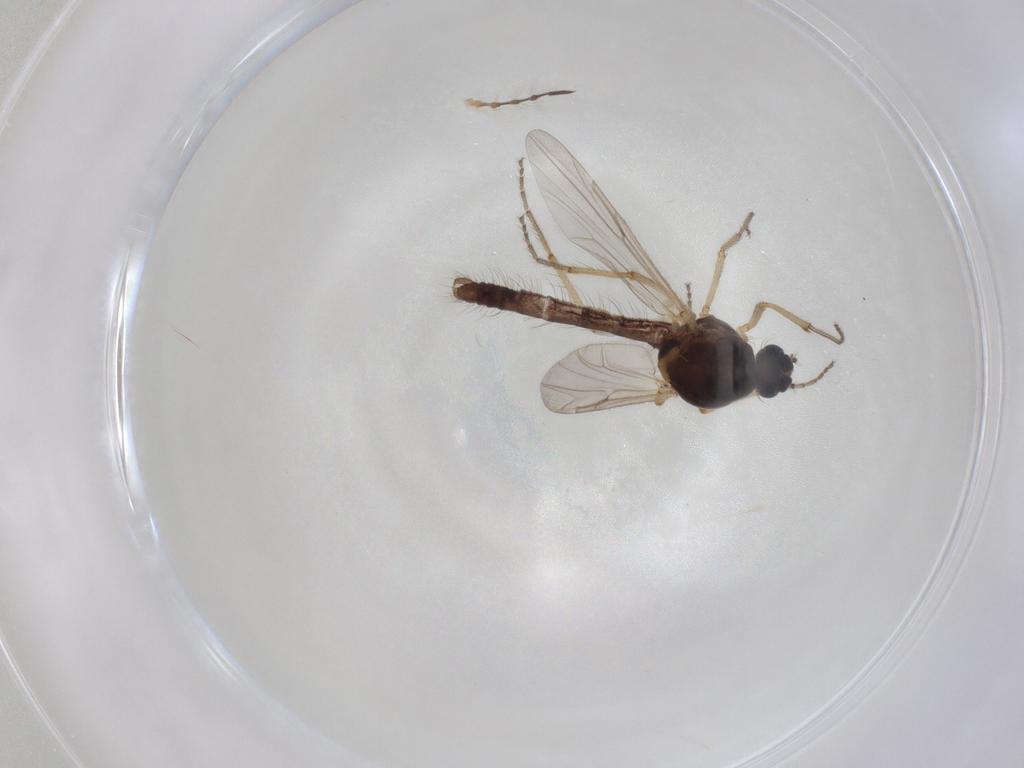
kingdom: Animalia
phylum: Arthropoda
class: Insecta
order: Diptera
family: Ceratopogonidae
